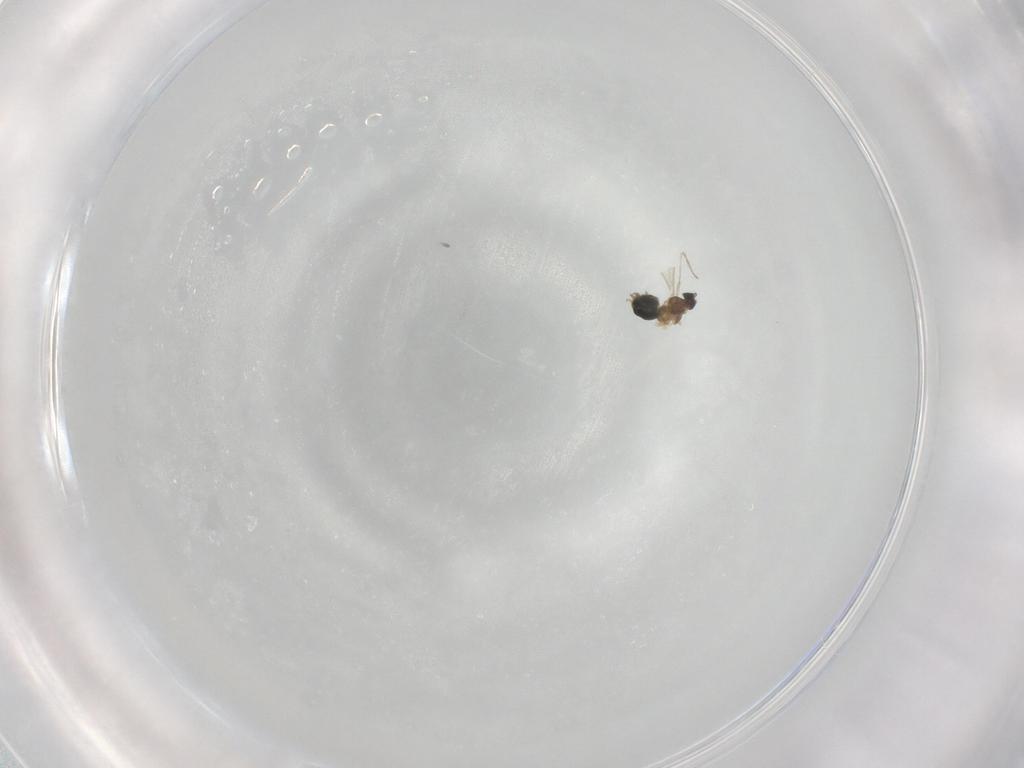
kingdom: Animalia
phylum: Arthropoda
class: Insecta
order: Diptera
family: Cecidomyiidae
